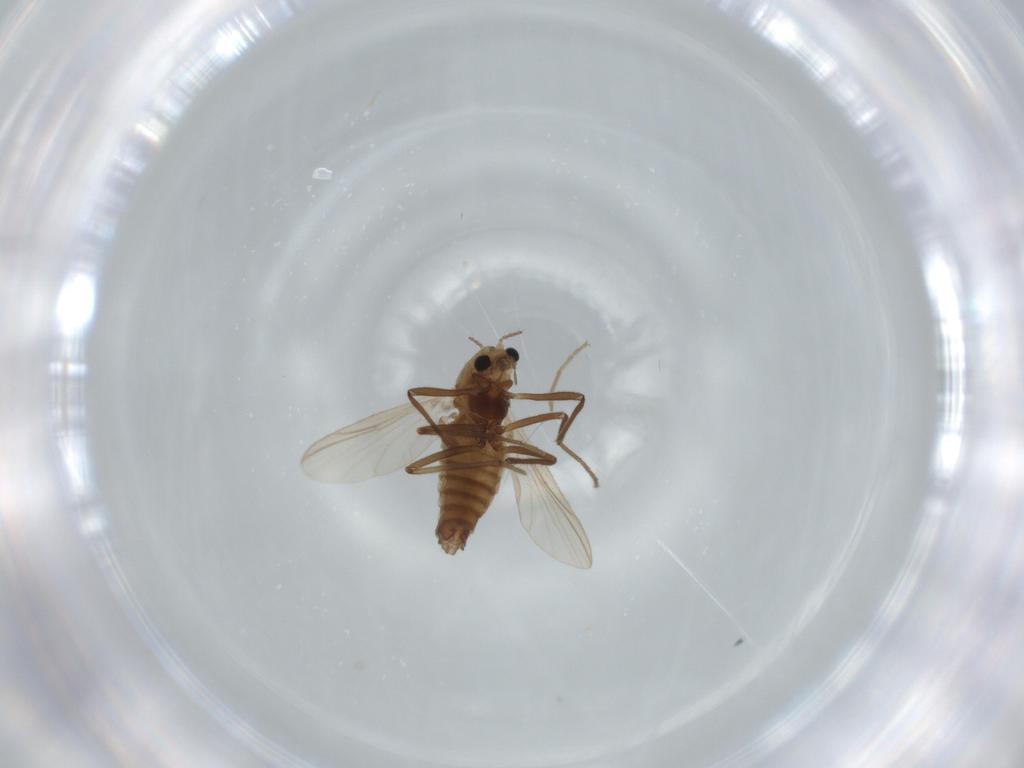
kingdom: Animalia
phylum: Arthropoda
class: Insecta
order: Diptera
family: Chironomidae
